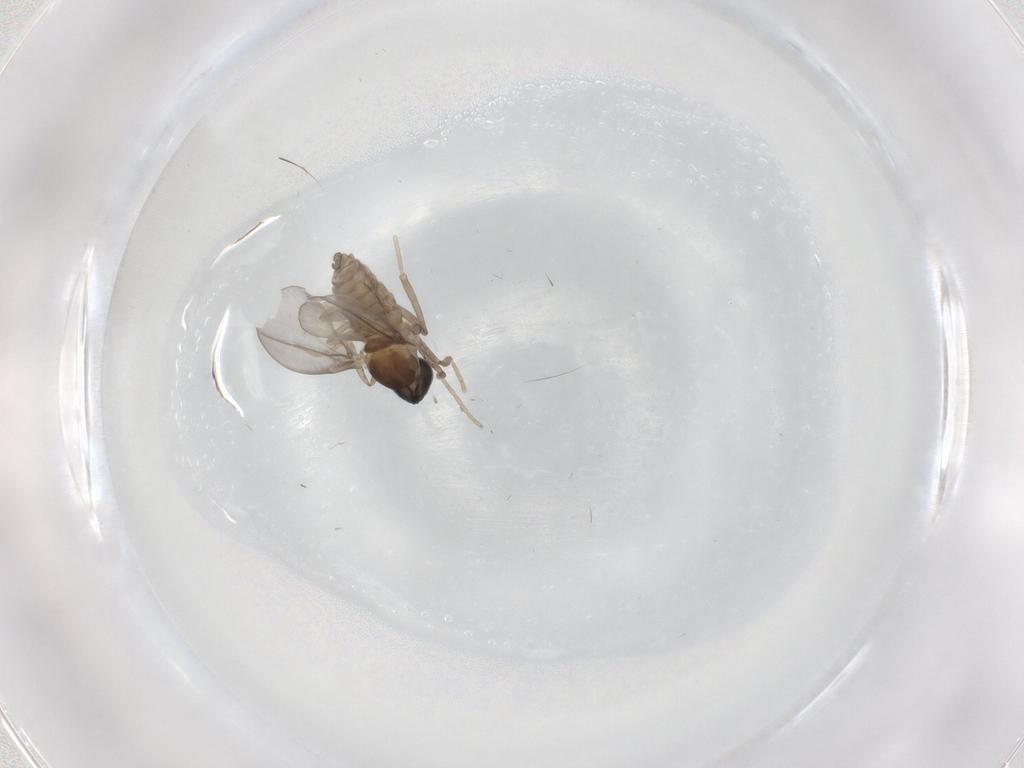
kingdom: Animalia
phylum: Arthropoda
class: Insecta
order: Diptera
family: Cecidomyiidae
